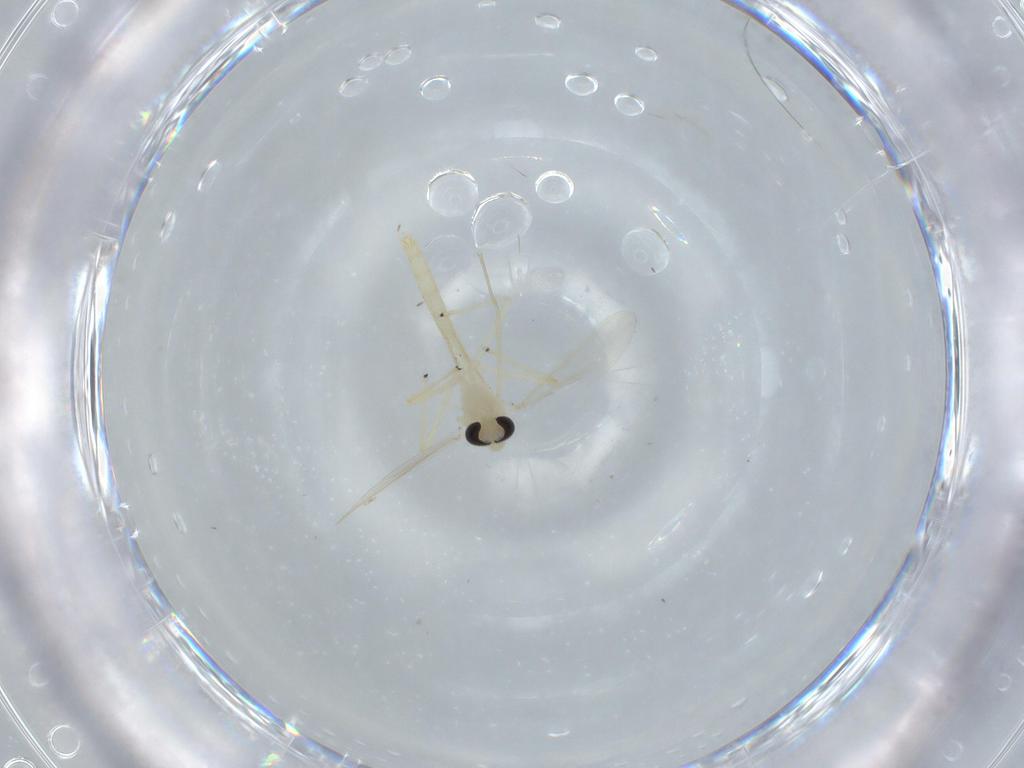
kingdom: Animalia
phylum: Arthropoda
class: Insecta
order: Diptera
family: Chironomidae
